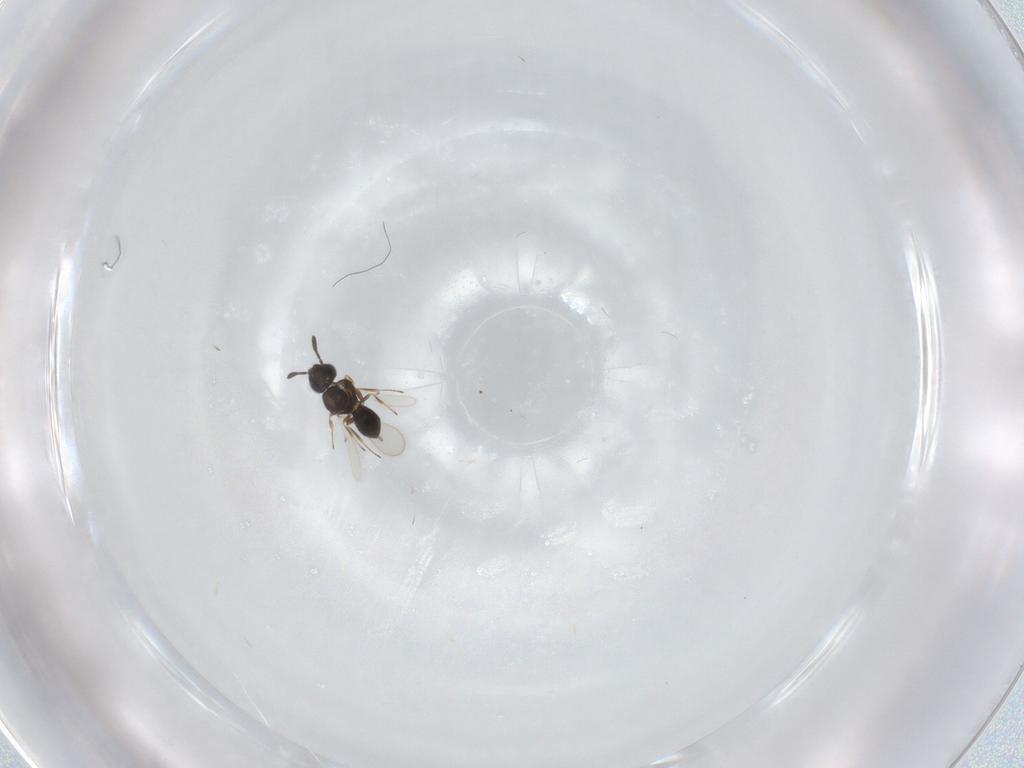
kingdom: Animalia
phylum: Arthropoda
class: Insecta
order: Hymenoptera
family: Scelionidae
